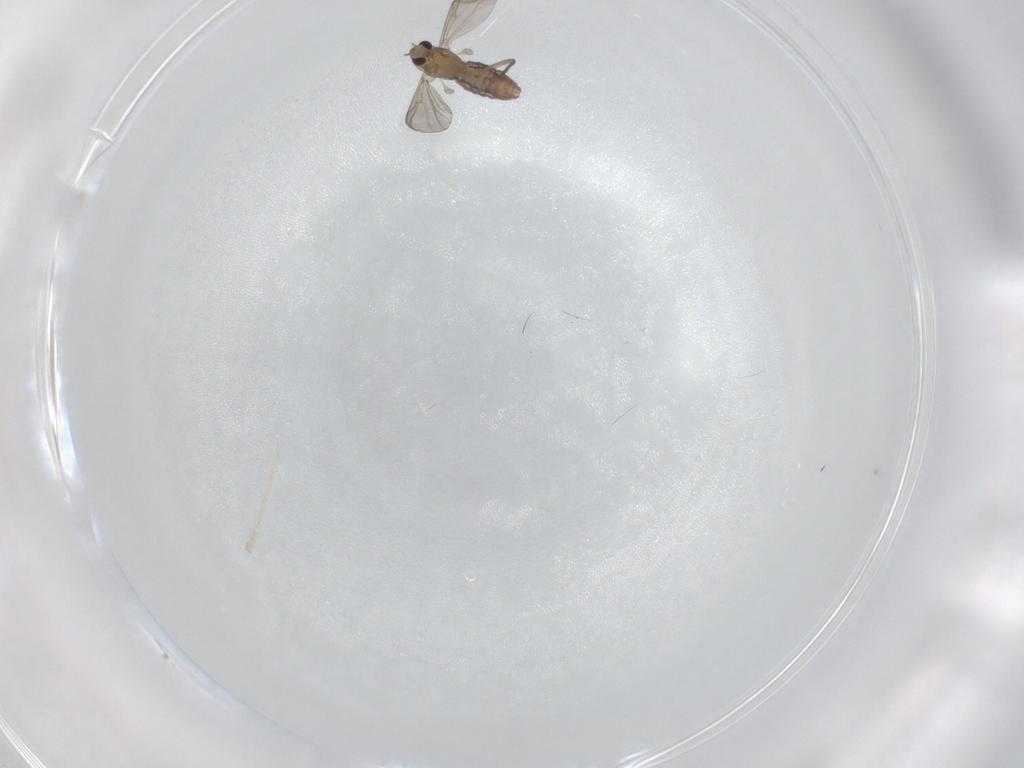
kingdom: Animalia
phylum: Arthropoda
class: Insecta
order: Diptera
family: Chironomidae
